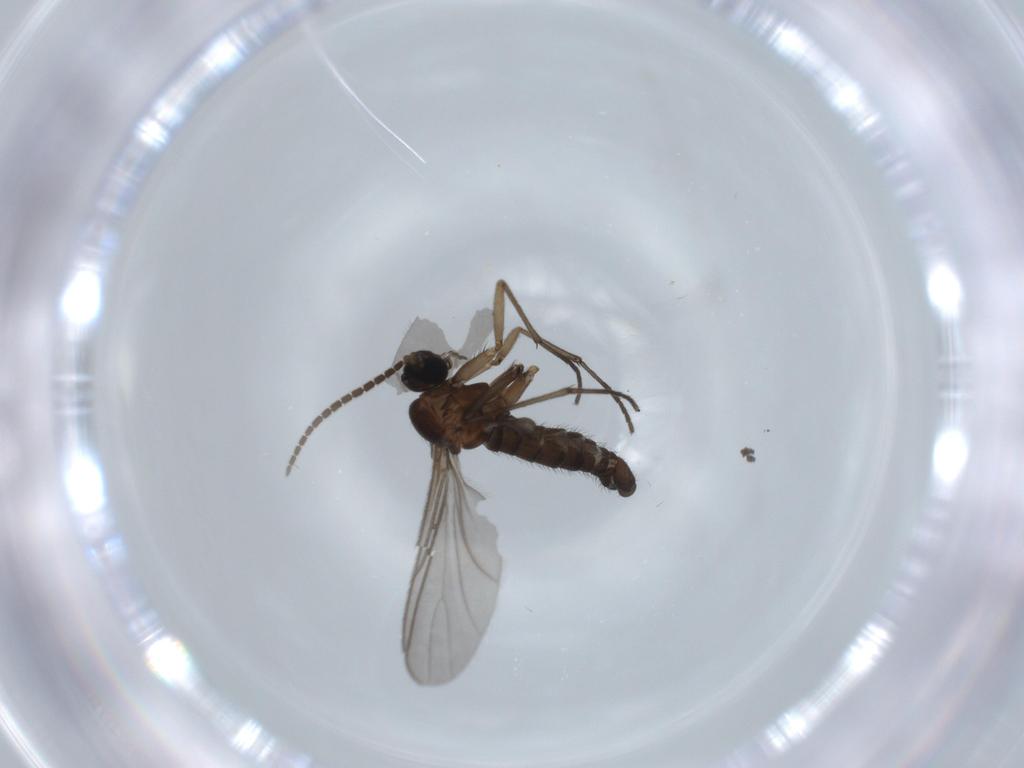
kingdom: Animalia
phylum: Arthropoda
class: Insecta
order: Diptera
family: Sciaridae
